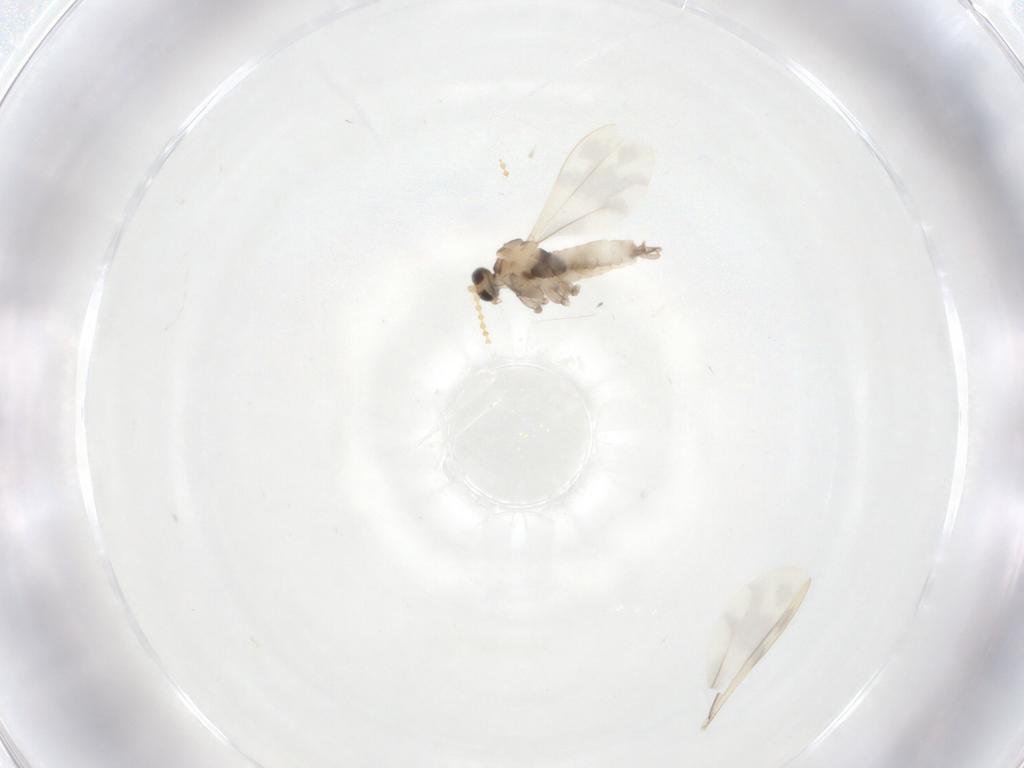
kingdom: Animalia
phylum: Arthropoda
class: Insecta
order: Diptera
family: Cecidomyiidae
